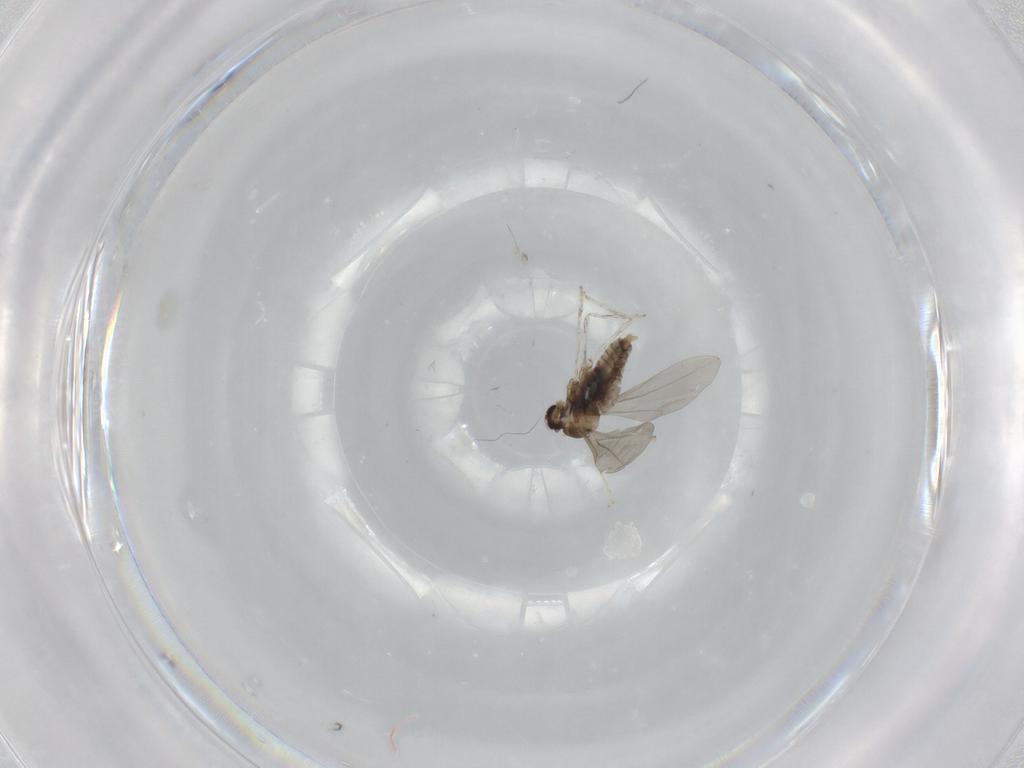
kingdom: Animalia
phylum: Arthropoda
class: Insecta
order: Diptera
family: Cecidomyiidae
